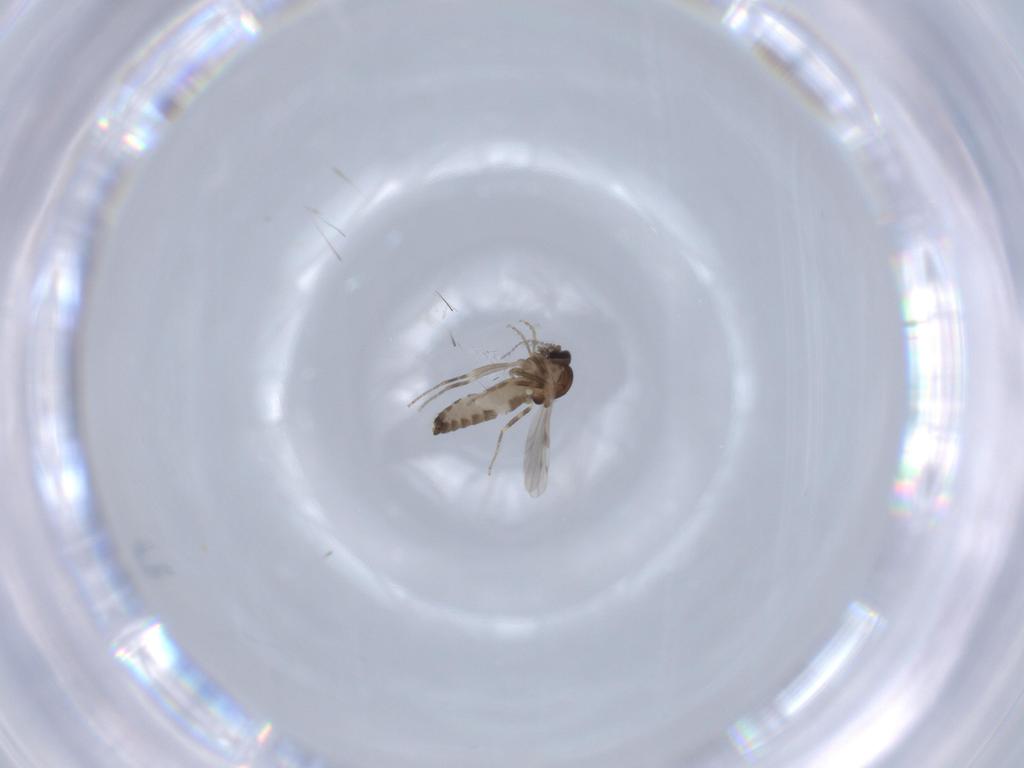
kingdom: Animalia
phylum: Arthropoda
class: Insecta
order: Diptera
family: Ceratopogonidae
